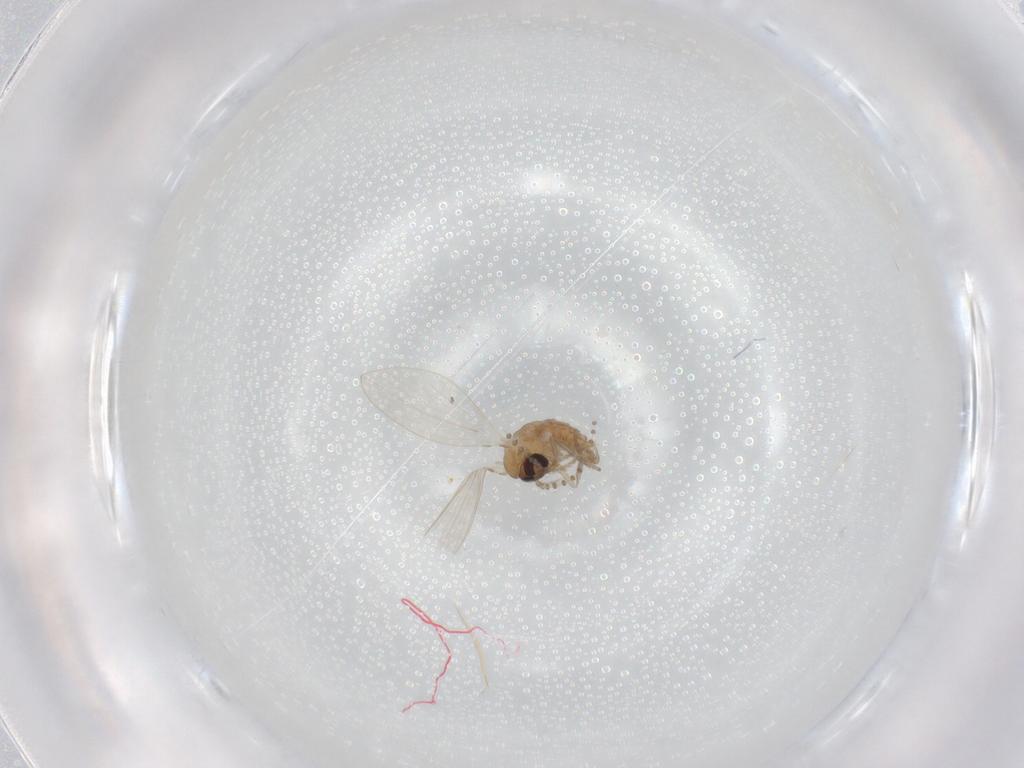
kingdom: Animalia
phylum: Arthropoda
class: Insecta
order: Diptera
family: Psychodidae
